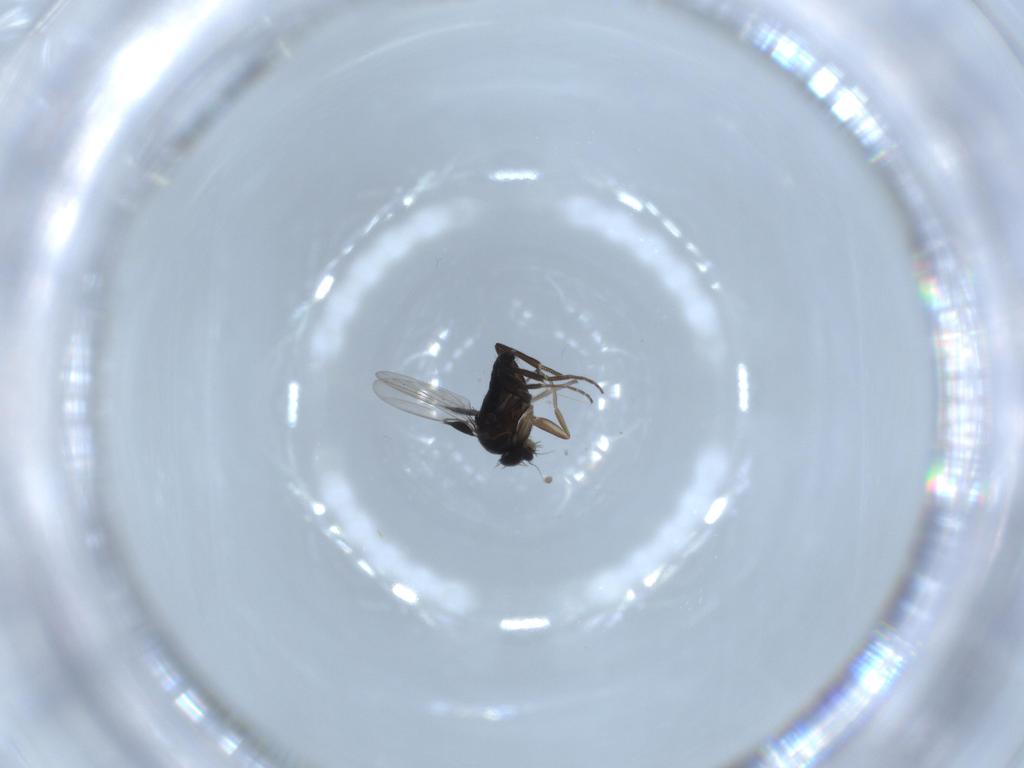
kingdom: Animalia
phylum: Arthropoda
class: Insecta
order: Diptera
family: Phoridae
